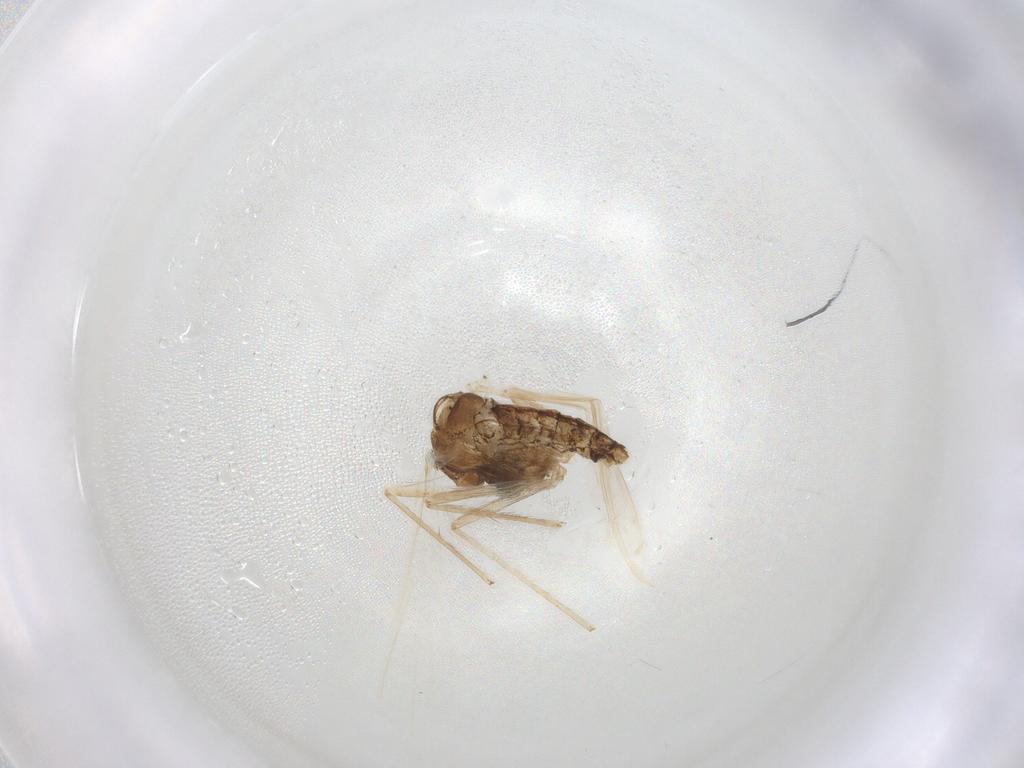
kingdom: Animalia
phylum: Arthropoda
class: Insecta
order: Diptera
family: Chironomidae
